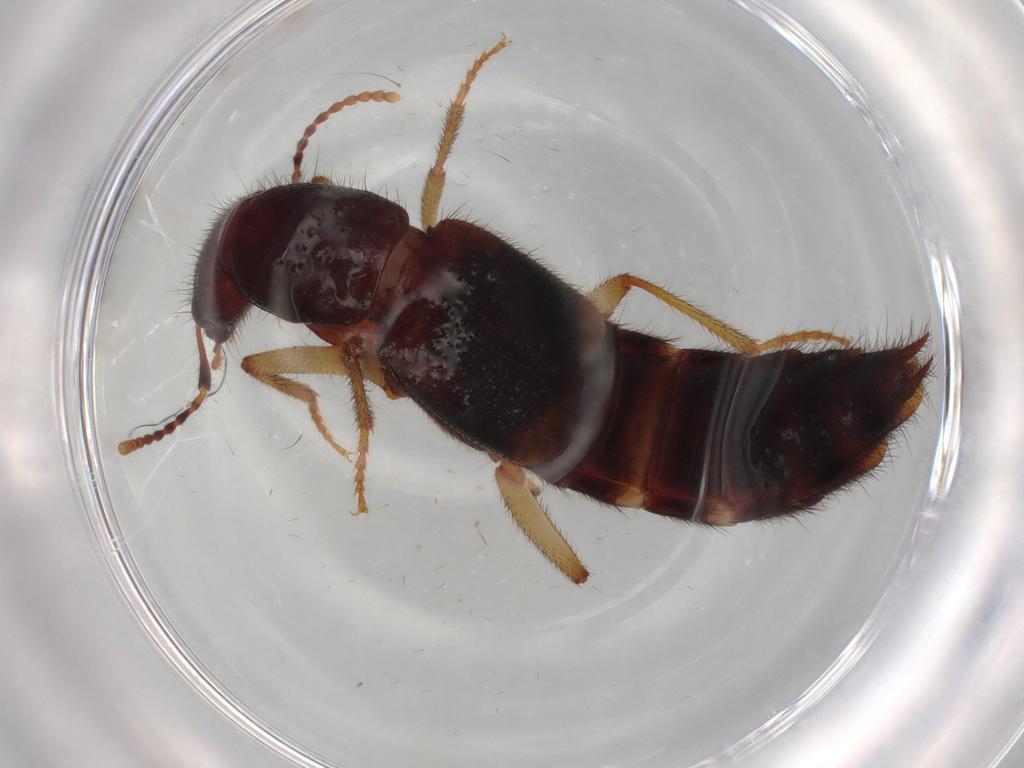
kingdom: Animalia
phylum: Arthropoda
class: Insecta
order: Coleoptera
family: Staphylinidae
